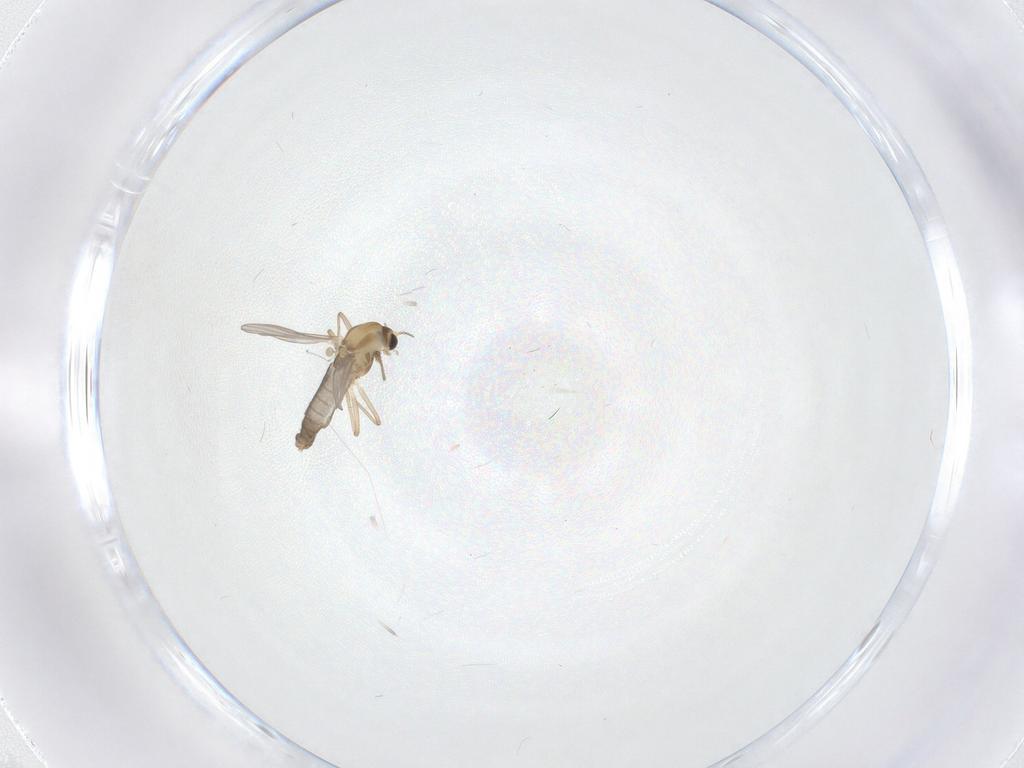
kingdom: Animalia
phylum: Arthropoda
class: Insecta
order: Diptera
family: Chironomidae
